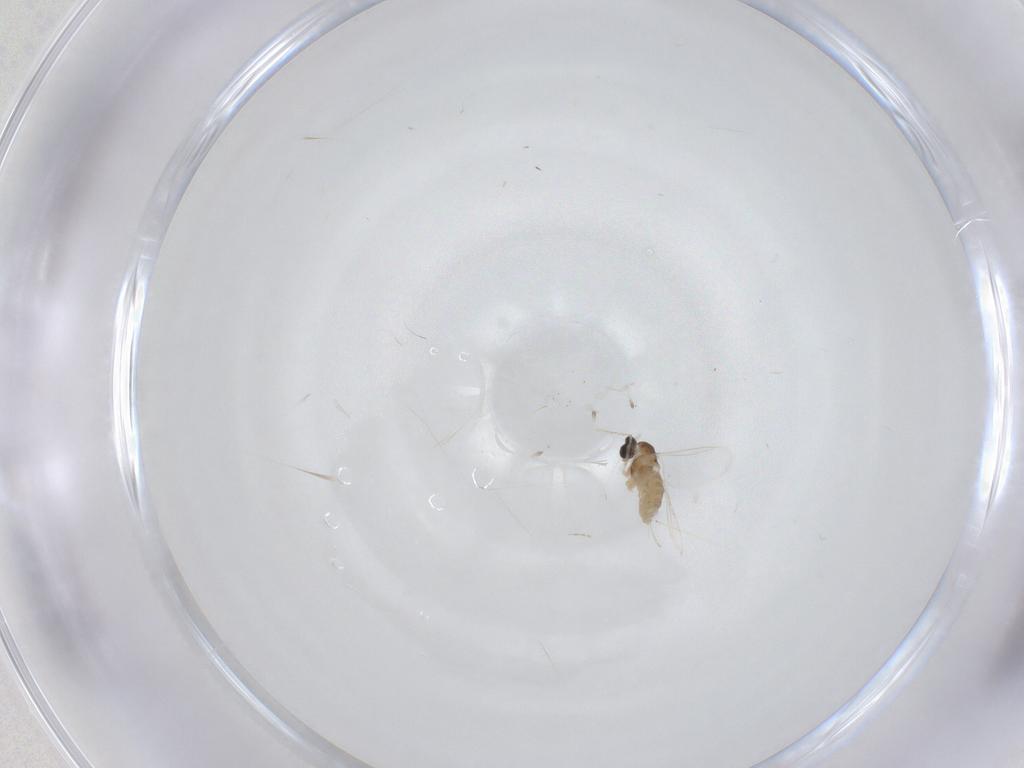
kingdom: Animalia
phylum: Arthropoda
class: Insecta
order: Diptera
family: Cecidomyiidae
